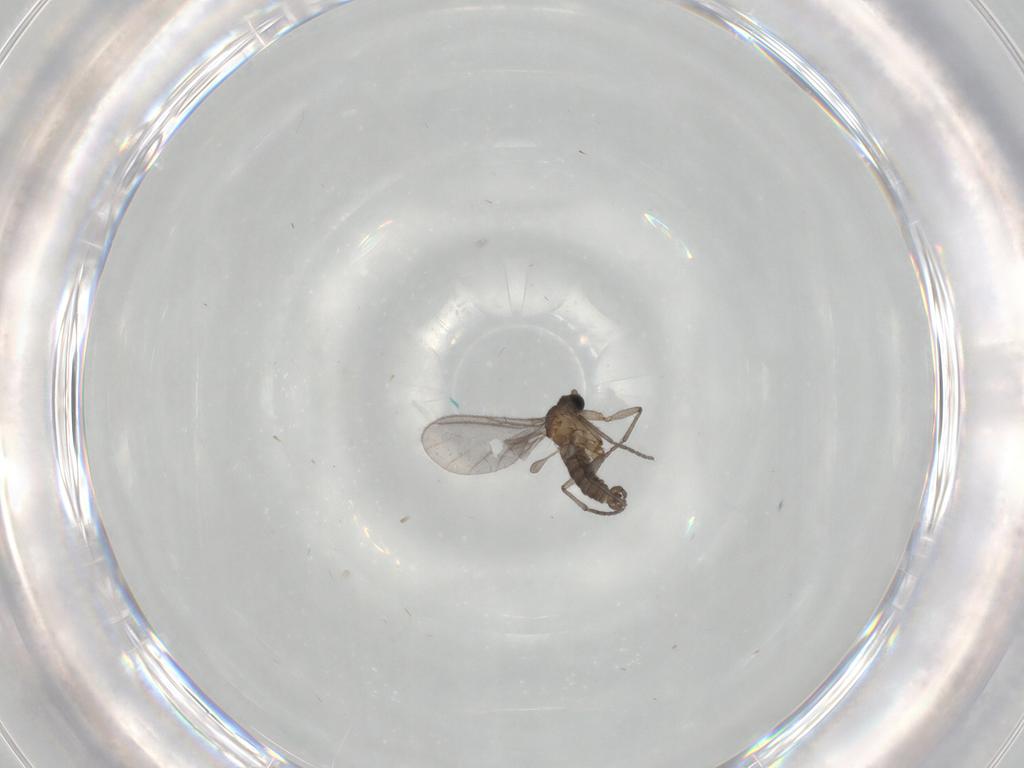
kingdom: Animalia
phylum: Arthropoda
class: Insecta
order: Diptera
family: Sciaridae
